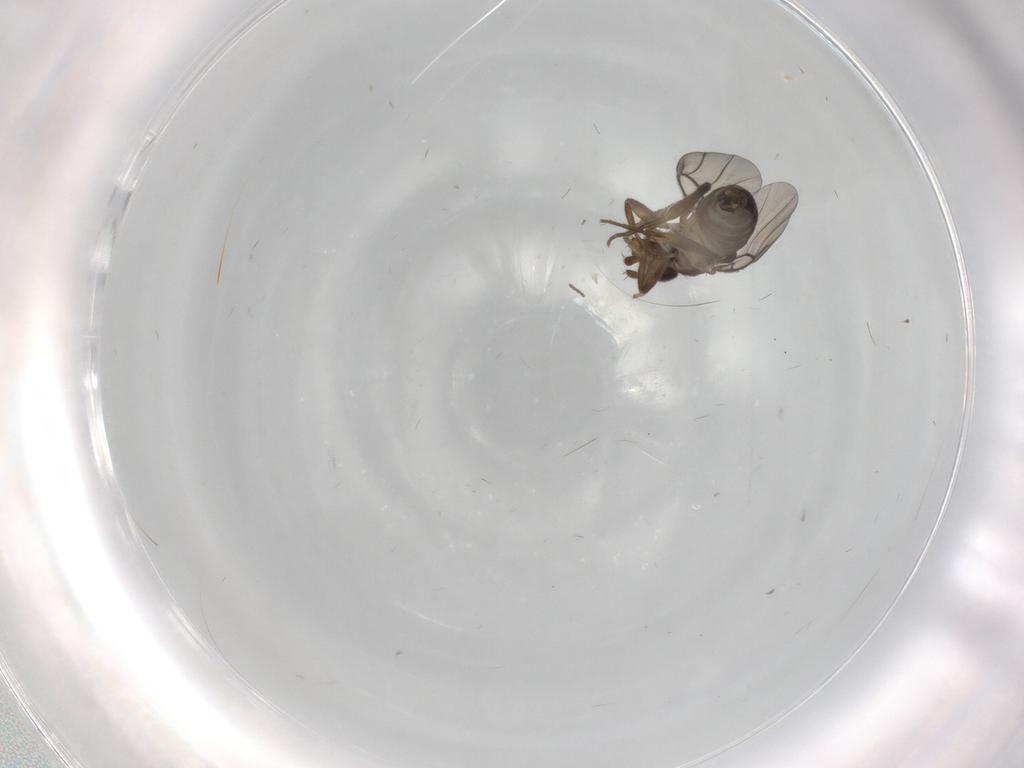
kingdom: Animalia
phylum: Arthropoda
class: Insecta
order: Diptera
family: Phoridae
